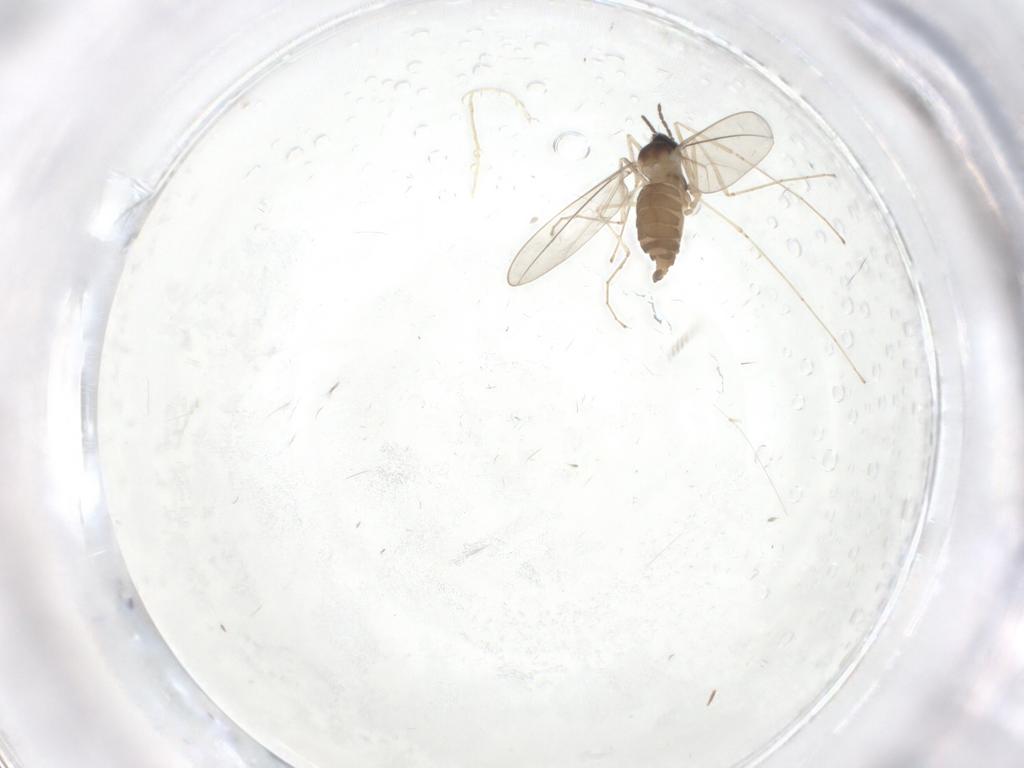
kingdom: Animalia
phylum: Arthropoda
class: Insecta
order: Diptera
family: Cecidomyiidae
